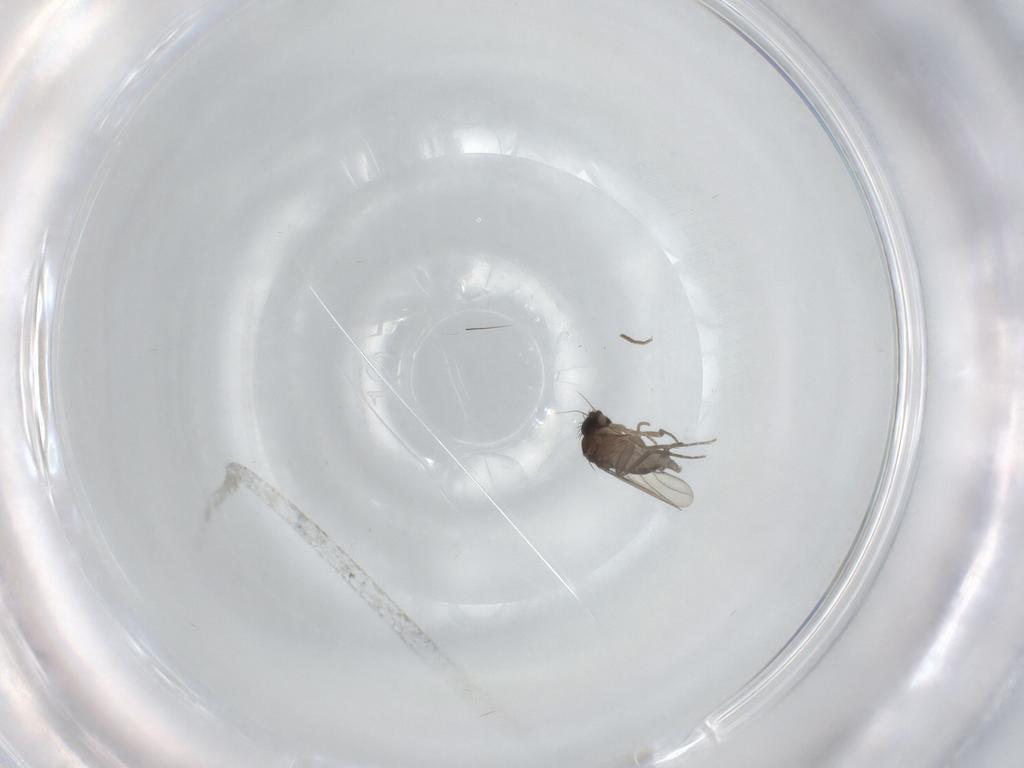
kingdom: Animalia
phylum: Arthropoda
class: Insecta
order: Diptera
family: Phoridae
